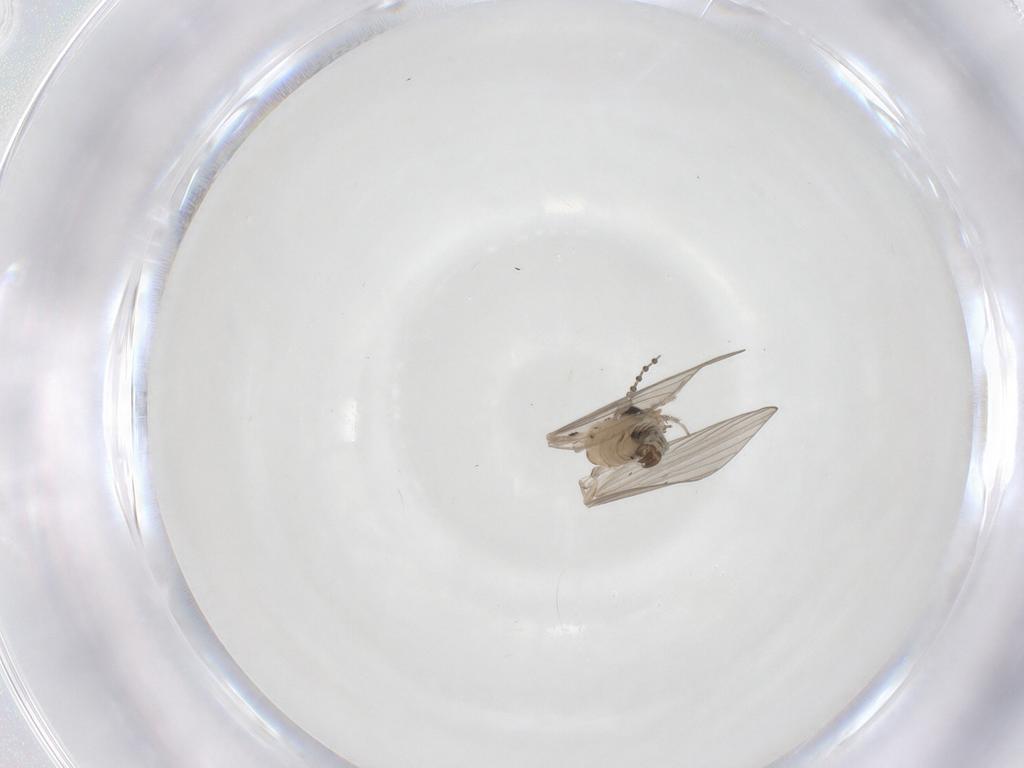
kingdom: Animalia
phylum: Arthropoda
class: Insecta
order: Diptera
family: Psychodidae
